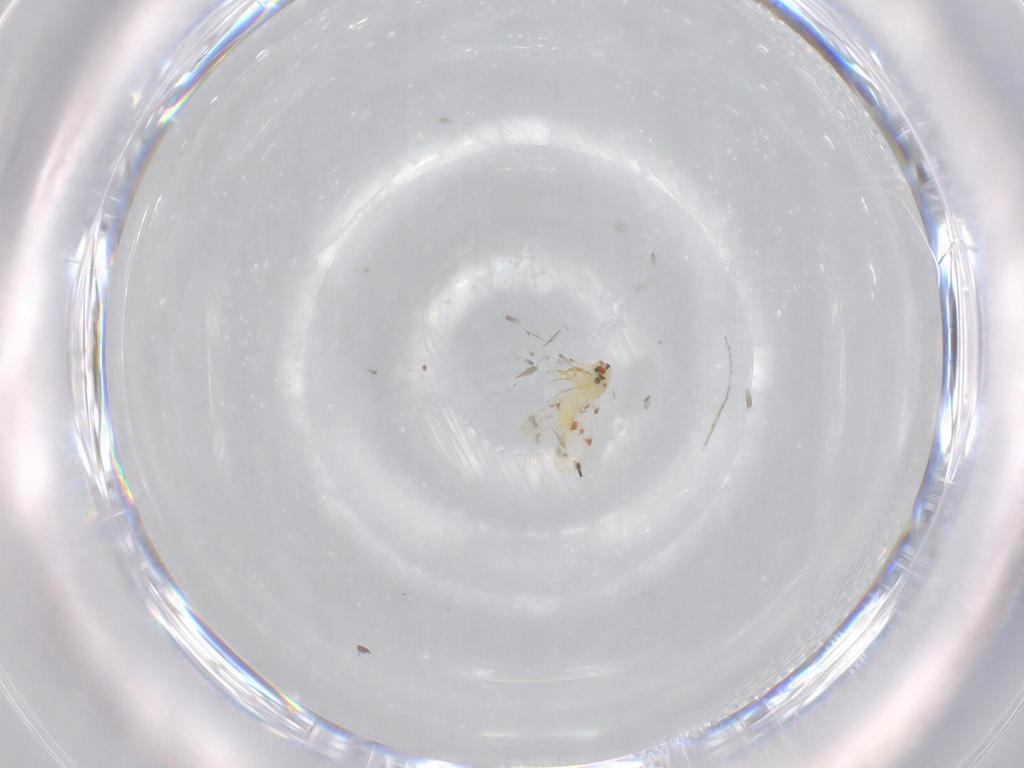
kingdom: Animalia
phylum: Arthropoda
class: Insecta
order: Hemiptera
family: Aleyrodidae
